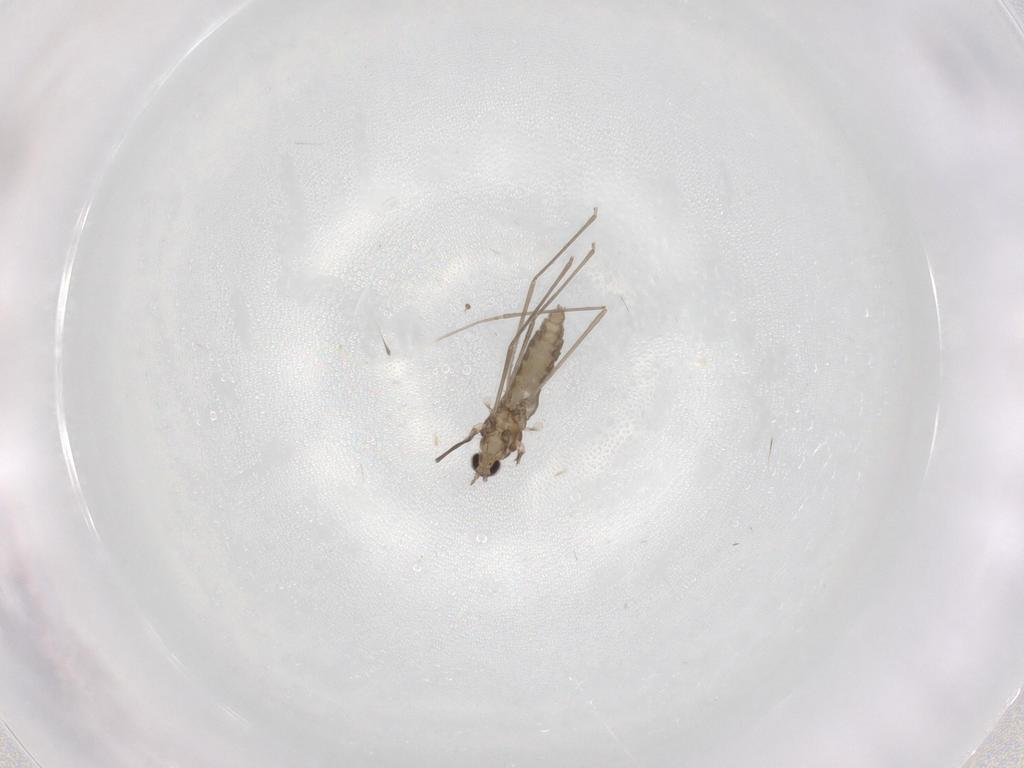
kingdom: Animalia
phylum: Arthropoda
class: Insecta
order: Diptera
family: Cecidomyiidae
